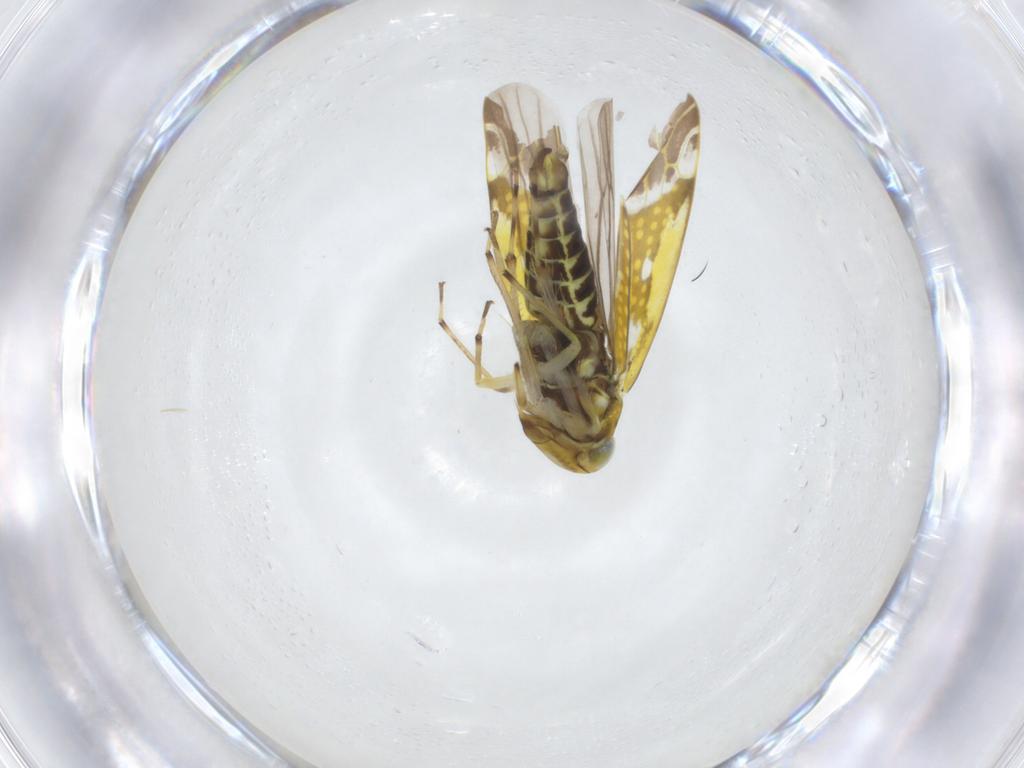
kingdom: Animalia
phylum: Arthropoda
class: Insecta
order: Hemiptera
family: Cicadellidae
